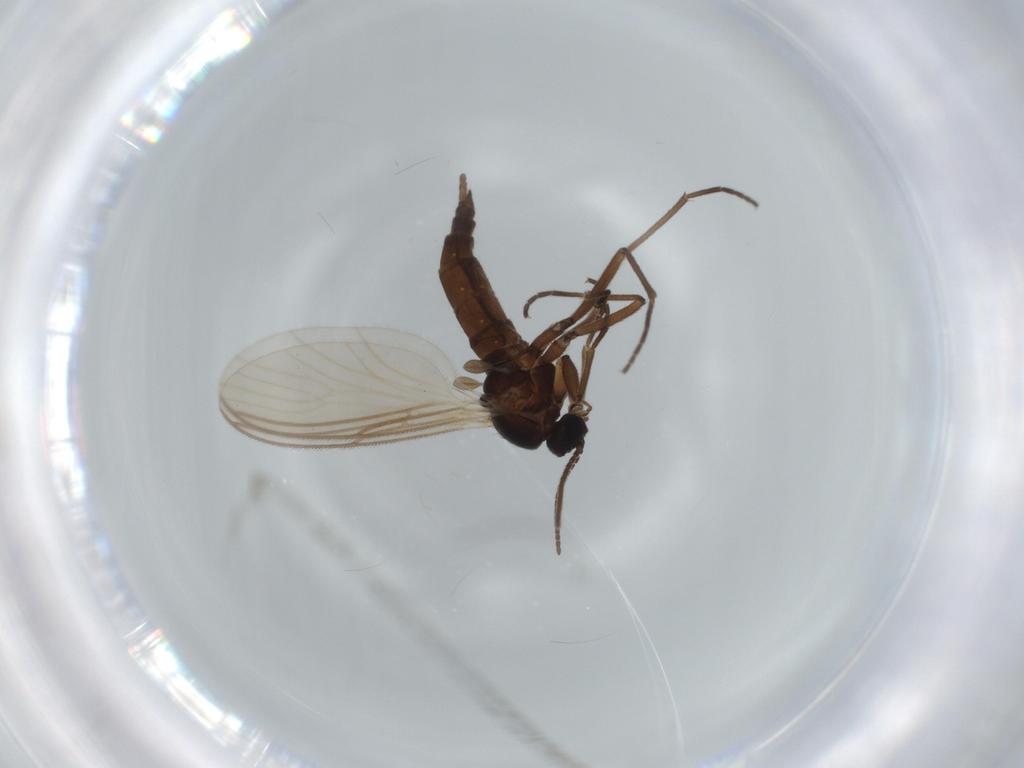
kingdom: Animalia
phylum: Arthropoda
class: Insecta
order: Diptera
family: Sciaridae
